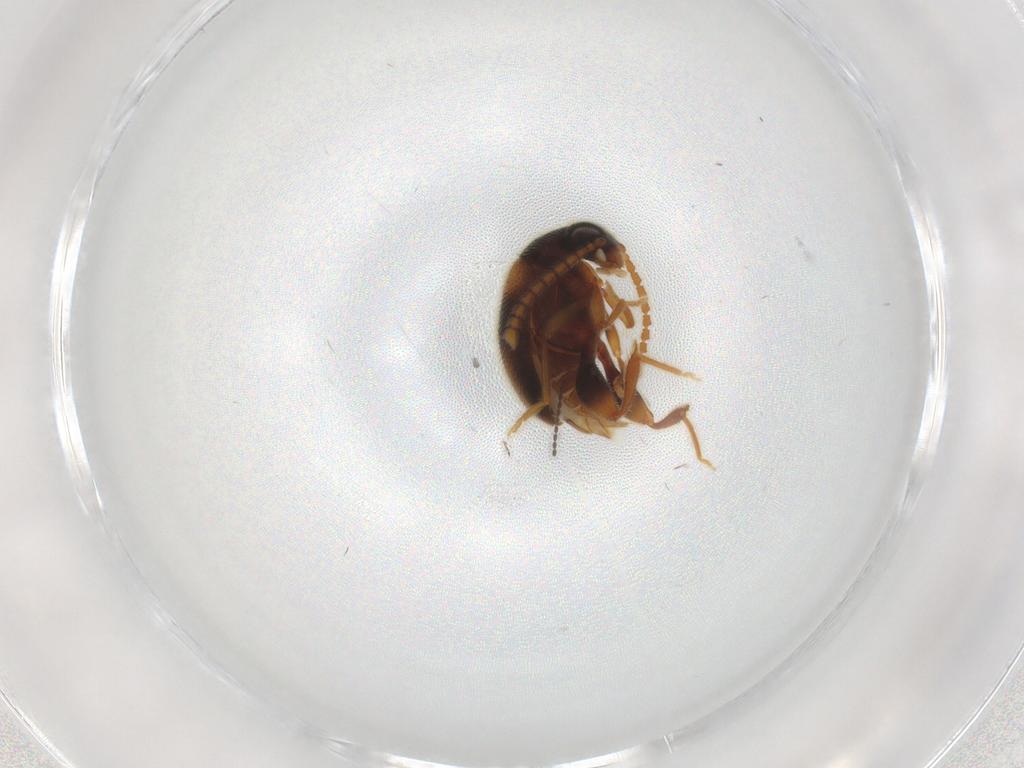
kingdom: Animalia
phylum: Arthropoda
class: Insecta
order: Coleoptera
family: Aderidae
